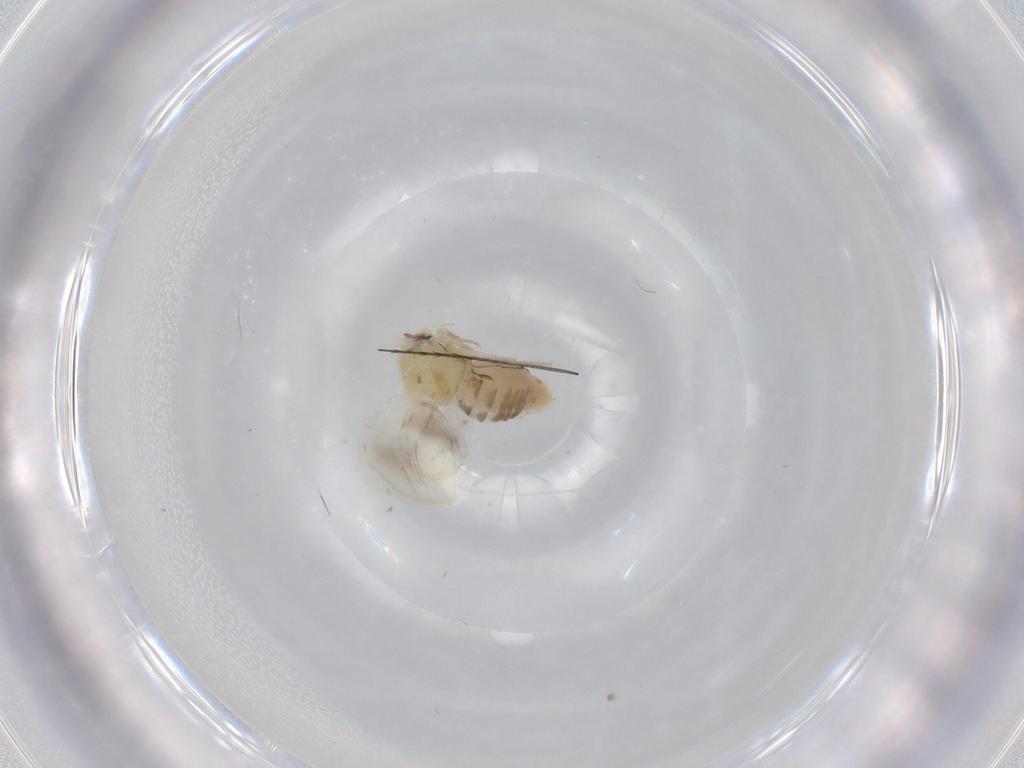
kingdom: Animalia
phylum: Arthropoda
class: Insecta
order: Hemiptera
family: Aleyrodidae
